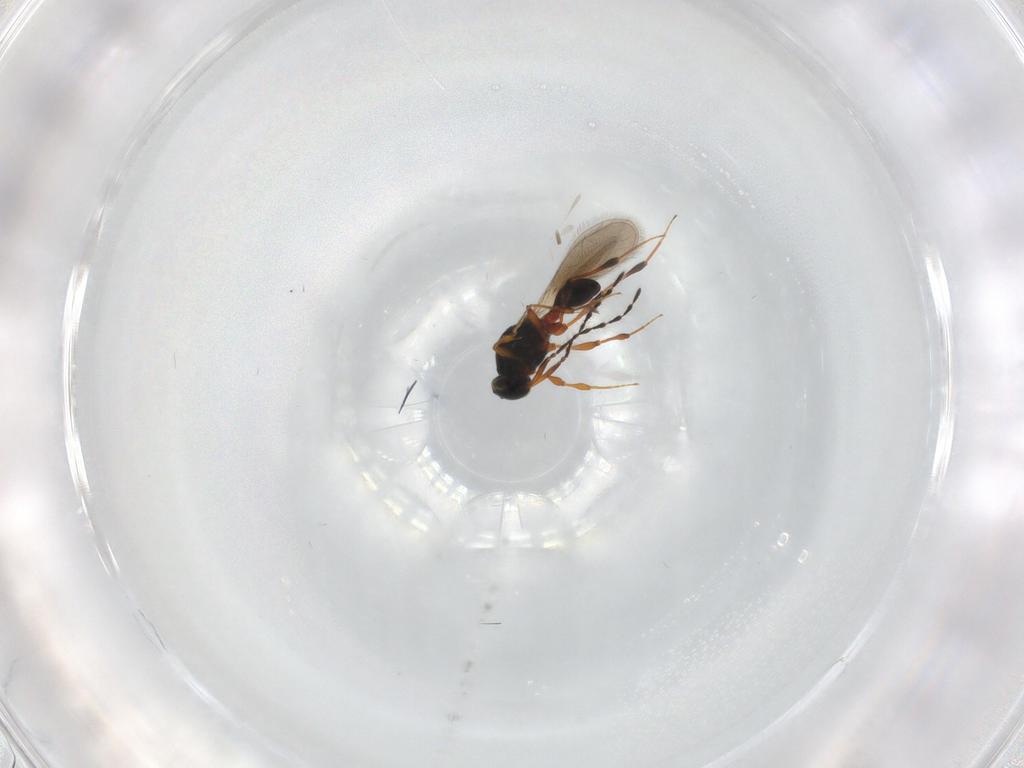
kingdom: Animalia
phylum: Arthropoda
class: Insecta
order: Hymenoptera
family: Platygastridae
